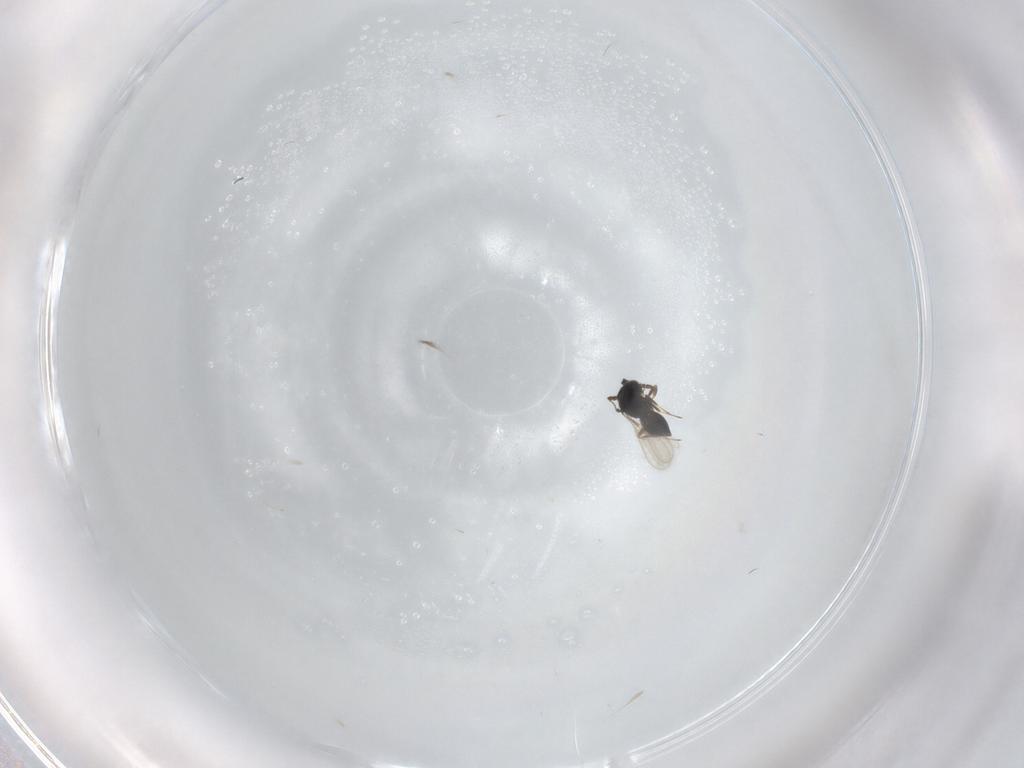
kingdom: Animalia
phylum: Arthropoda
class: Insecta
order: Hymenoptera
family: Scelionidae
